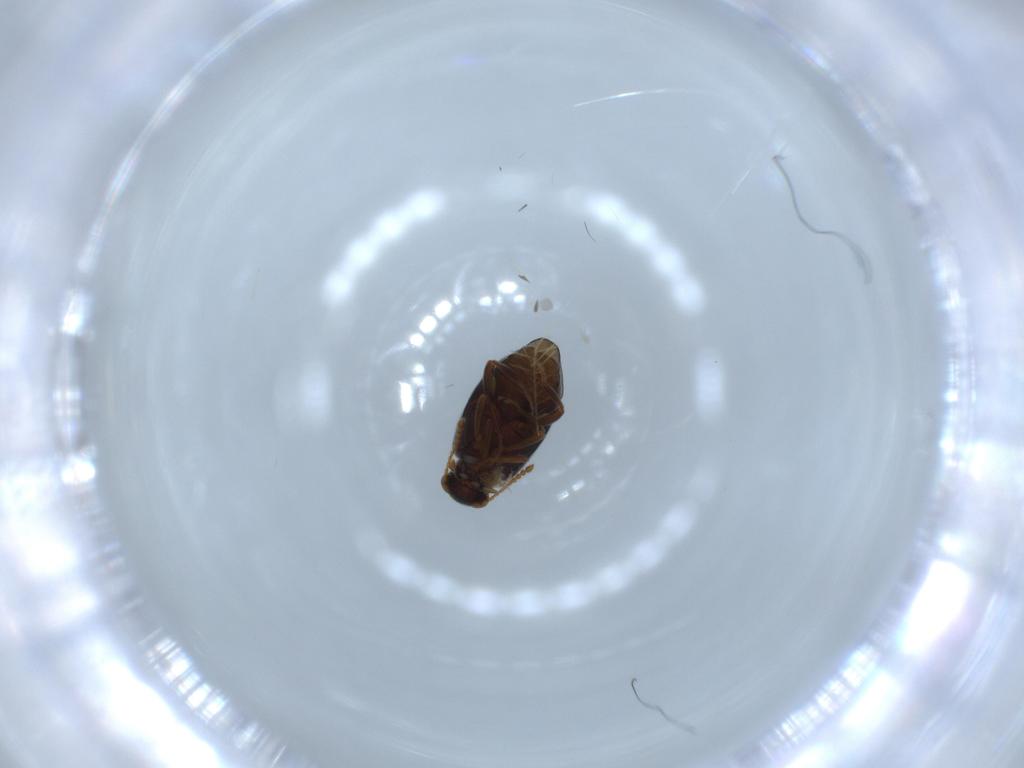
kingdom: Animalia
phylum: Arthropoda
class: Insecta
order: Coleoptera
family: Aderidae
